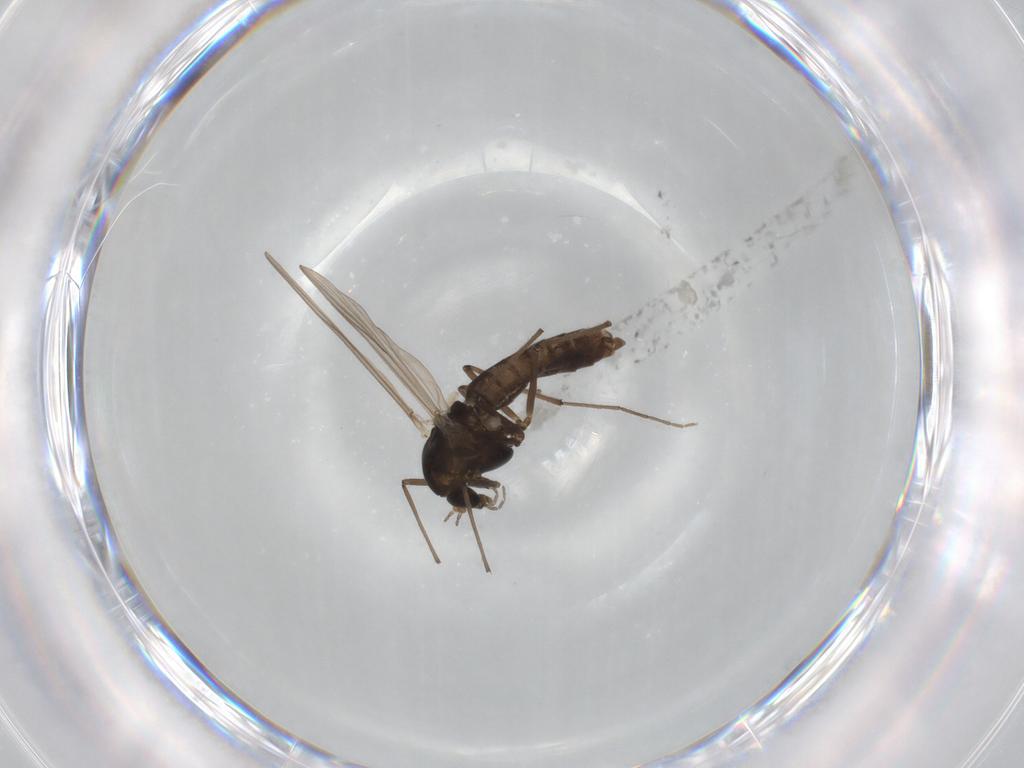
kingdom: Animalia
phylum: Arthropoda
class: Insecta
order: Diptera
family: Chironomidae
